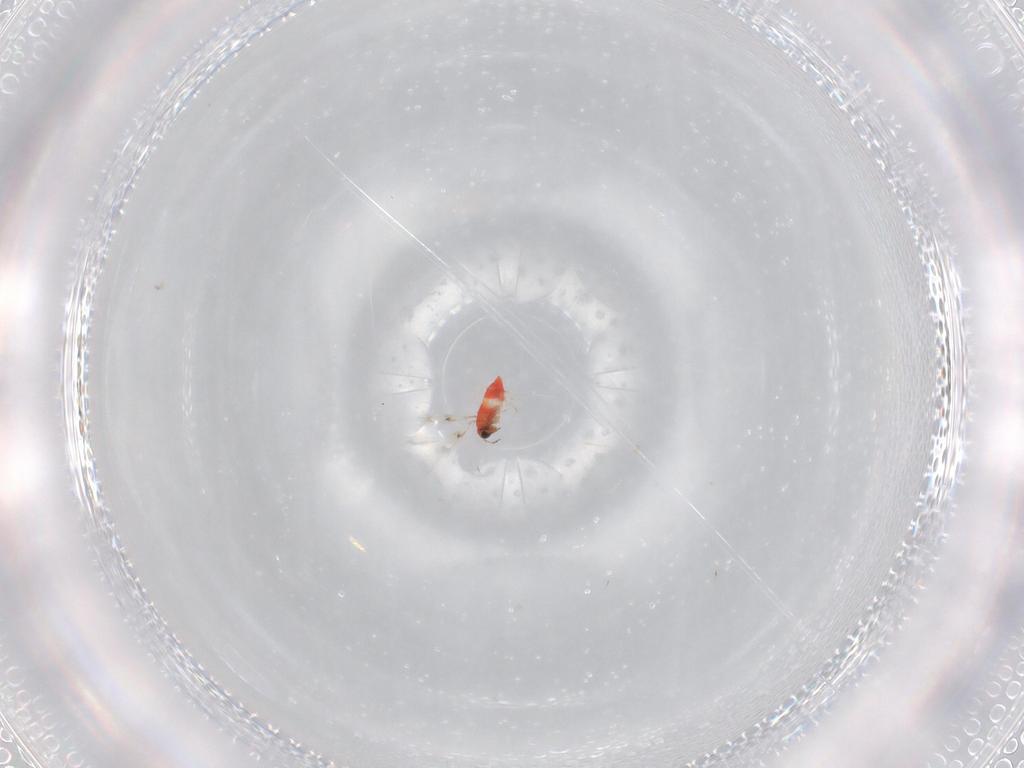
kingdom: Animalia
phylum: Arthropoda
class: Insecta
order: Hymenoptera
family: Trichogrammatidae
